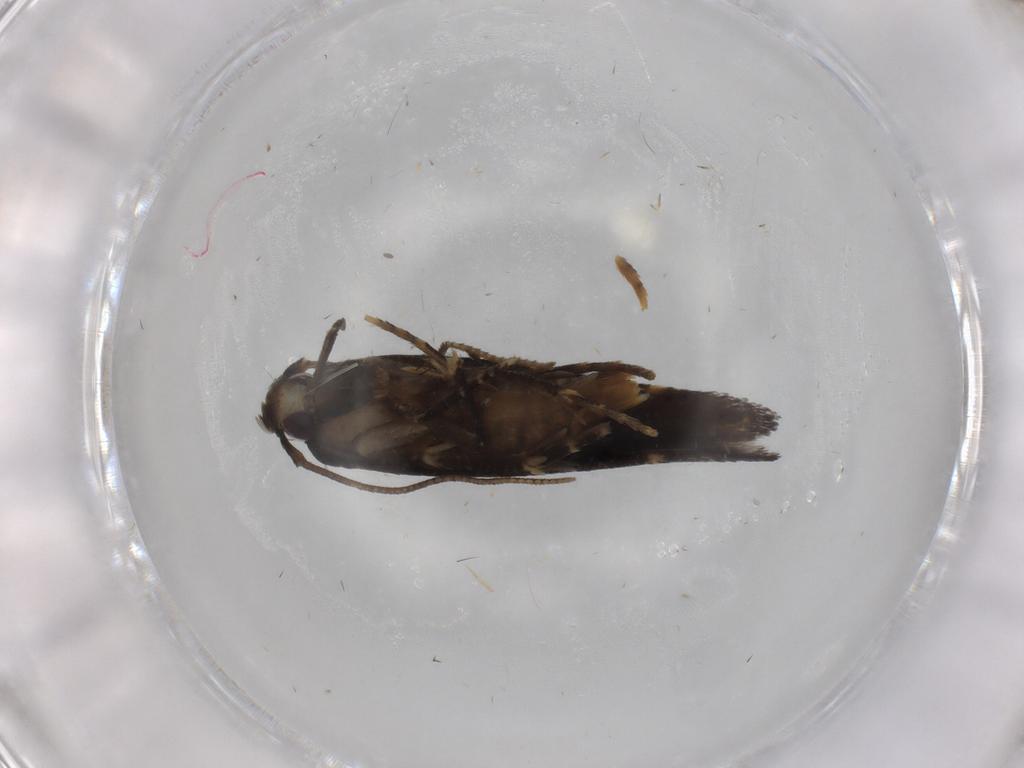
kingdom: Animalia
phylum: Arthropoda
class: Insecta
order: Lepidoptera
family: Cosmopterigidae
